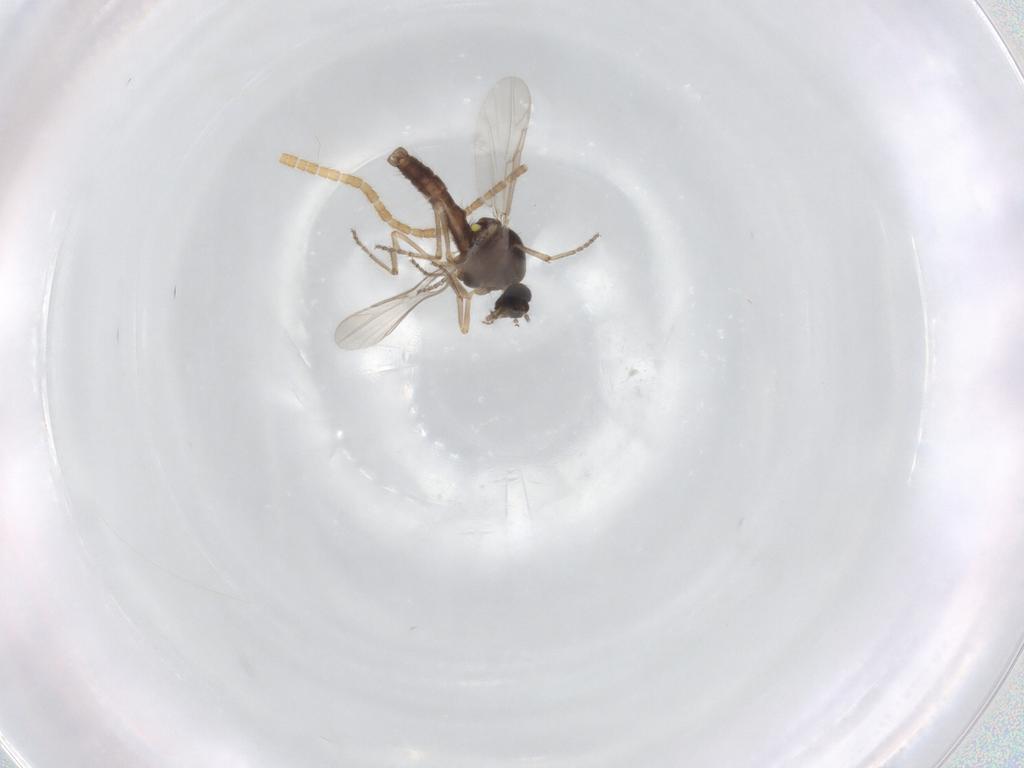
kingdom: Animalia
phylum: Arthropoda
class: Insecta
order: Diptera
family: Ceratopogonidae
